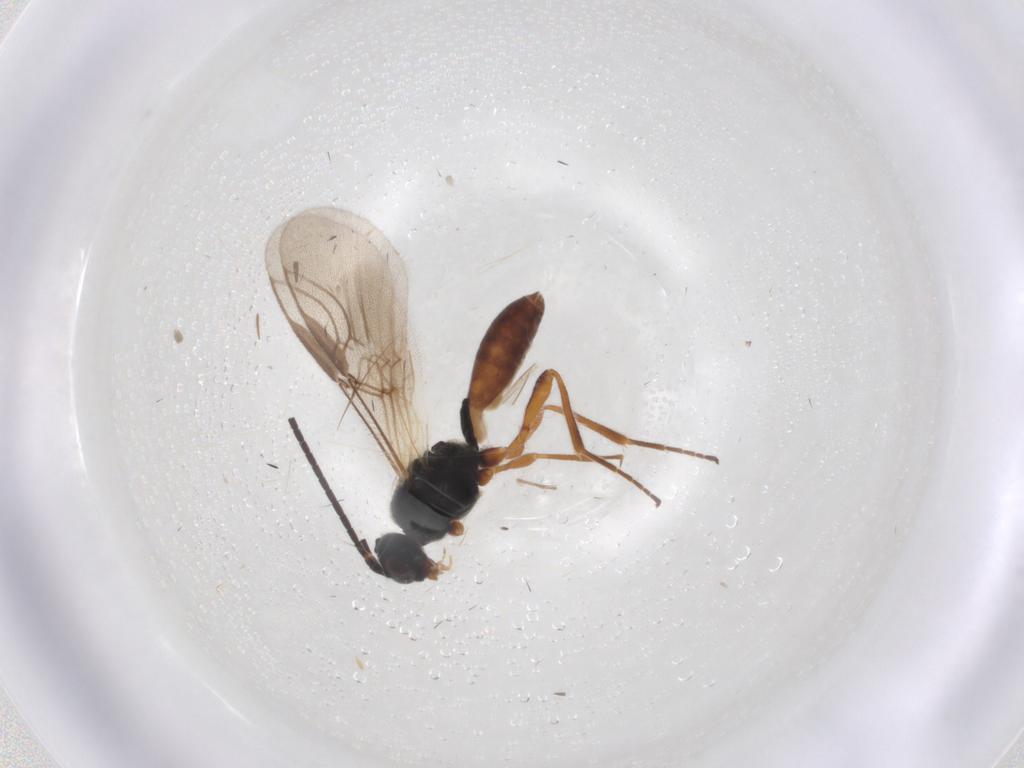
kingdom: Animalia
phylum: Arthropoda
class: Insecta
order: Hymenoptera
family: Braconidae
